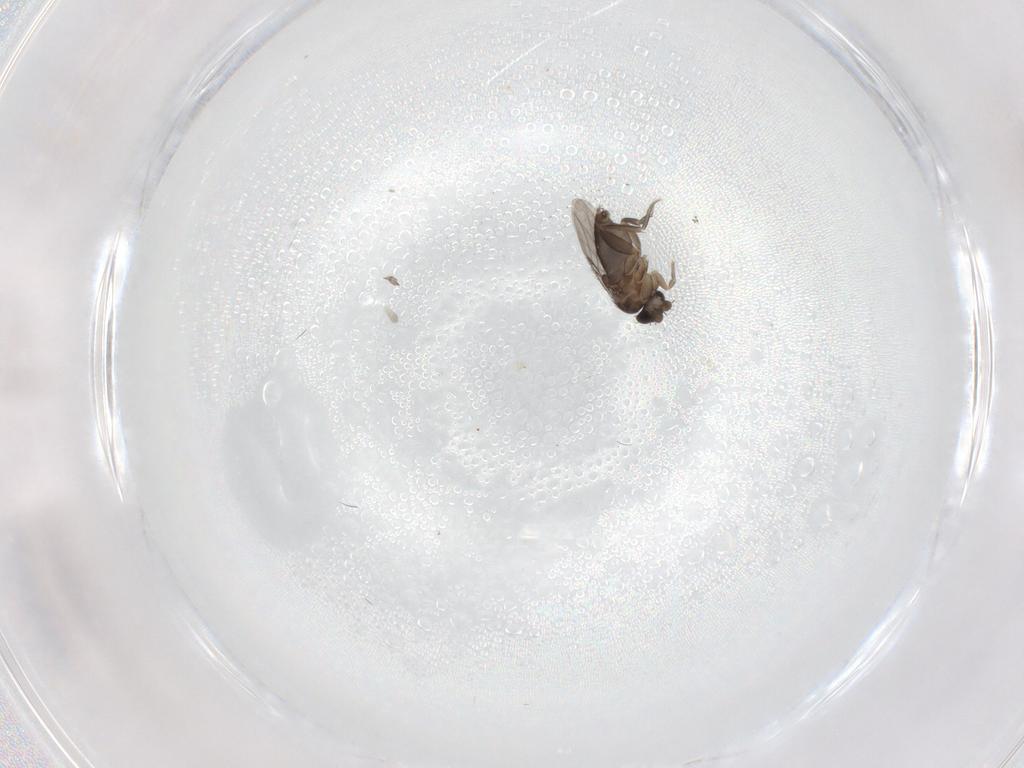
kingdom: Animalia
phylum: Arthropoda
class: Insecta
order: Diptera
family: Phoridae
